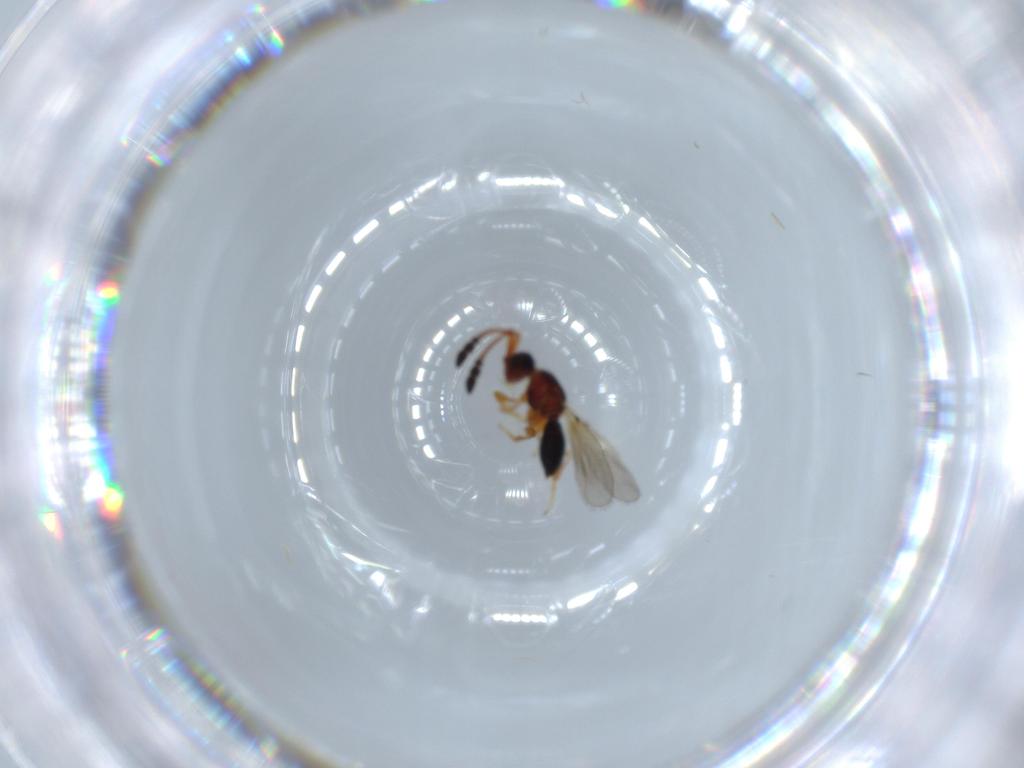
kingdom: Animalia
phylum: Arthropoda
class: Insecta
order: Hymenoptera
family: Diapriidae
